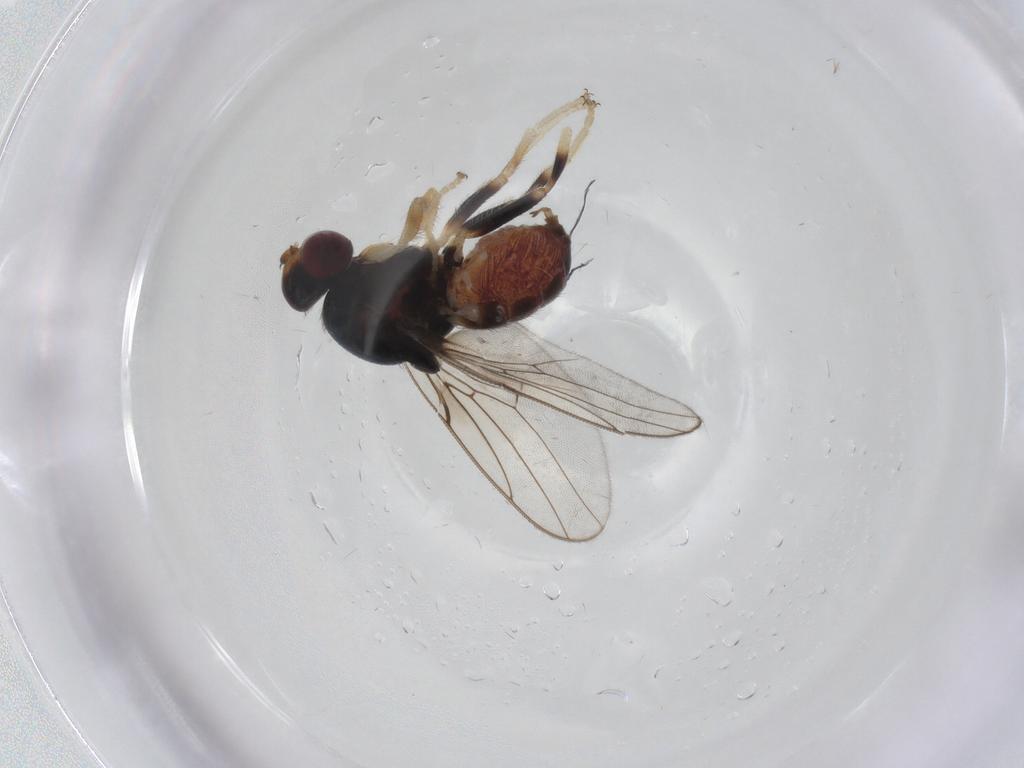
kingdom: Animalia
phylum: Arthropoda
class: Insecta
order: Diptera
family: Chloropidae
